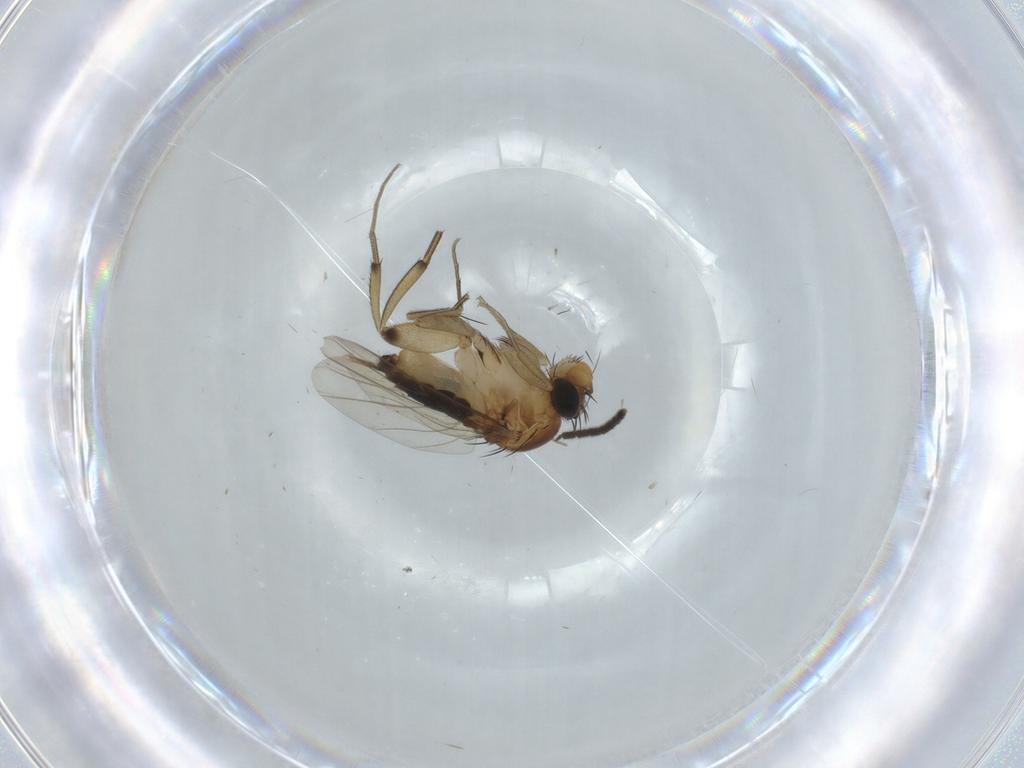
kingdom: Animalia
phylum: Arthropoda
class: Insecta
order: Diptera
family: Sciaridae
